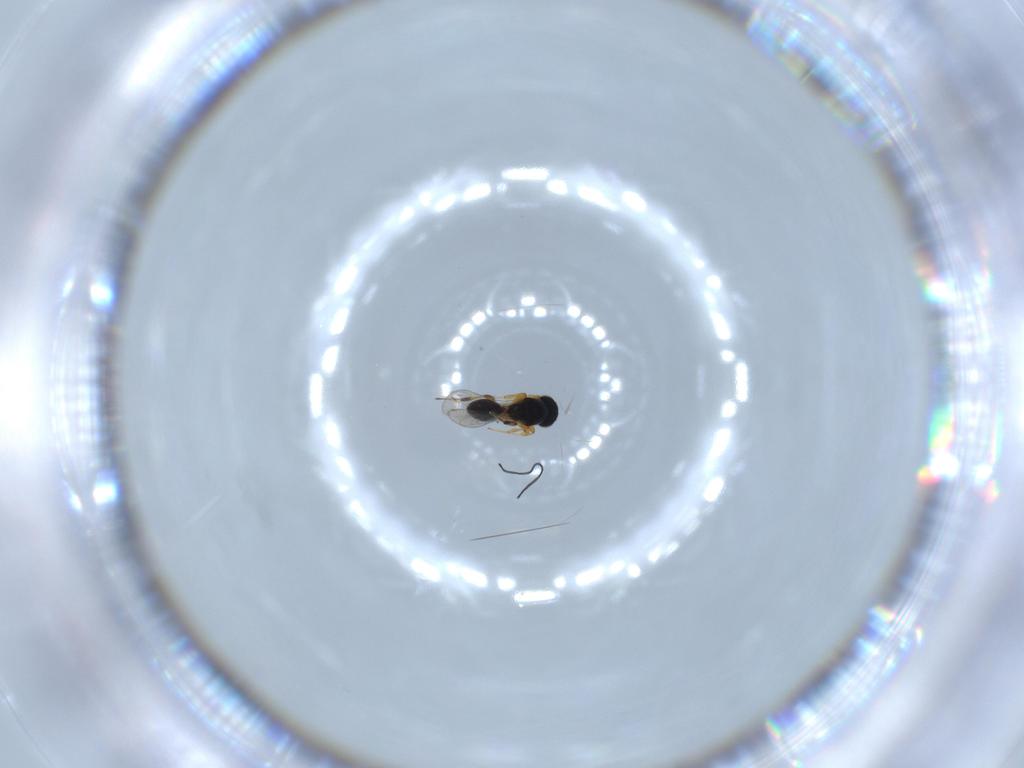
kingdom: Animalia
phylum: Arthropoda
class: Insecta
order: Hymenoptera
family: Platygastridae
